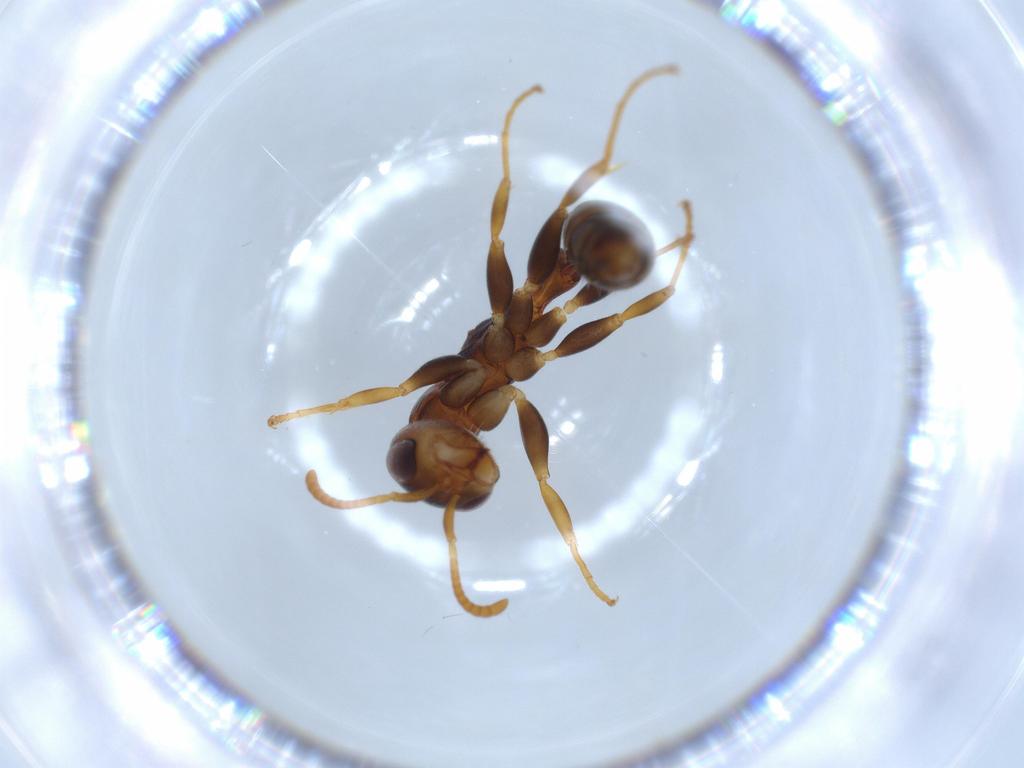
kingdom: Animalia
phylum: Arthropoda
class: Insecta
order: Hymenoptera
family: Formicidae
